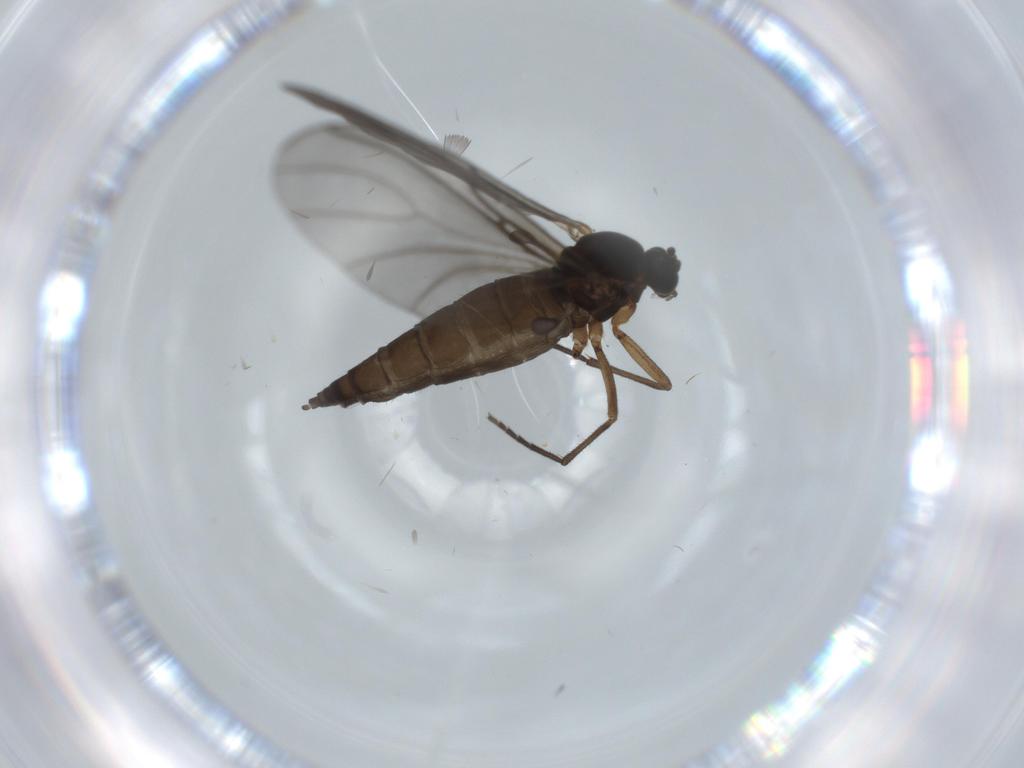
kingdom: Animalia
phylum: Arthropoda
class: Insecta
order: Diptera
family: Sciaridae
